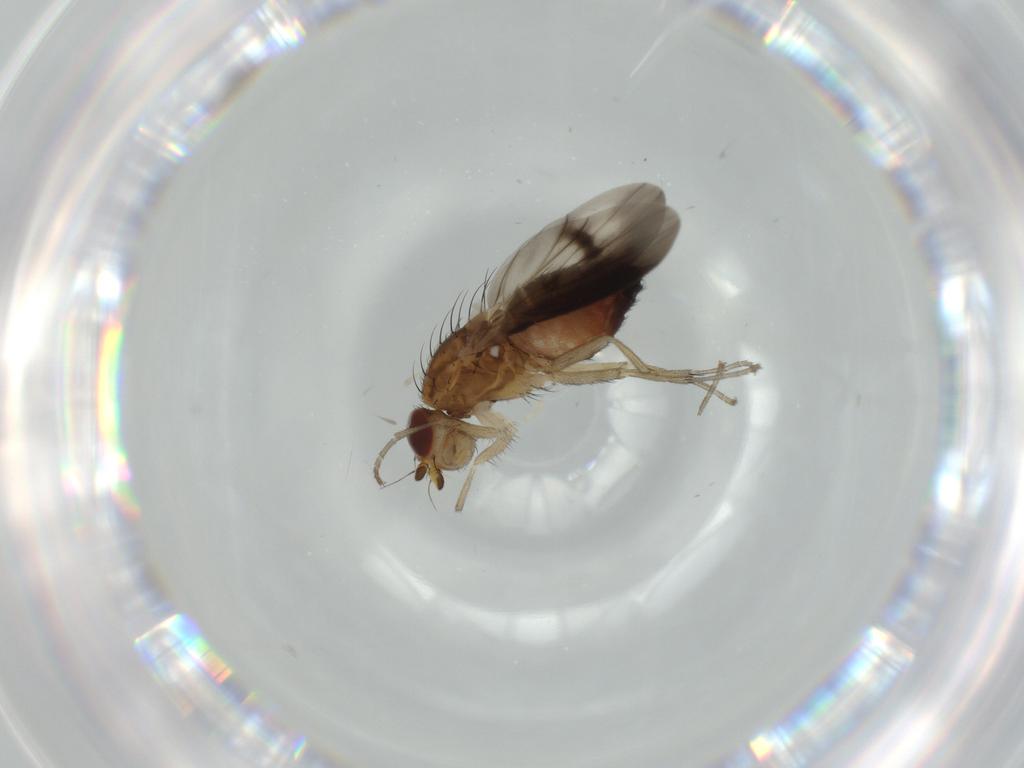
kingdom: Animalia
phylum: Arthropoda
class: Insecta
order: Diptera
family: Heleomyzidae
